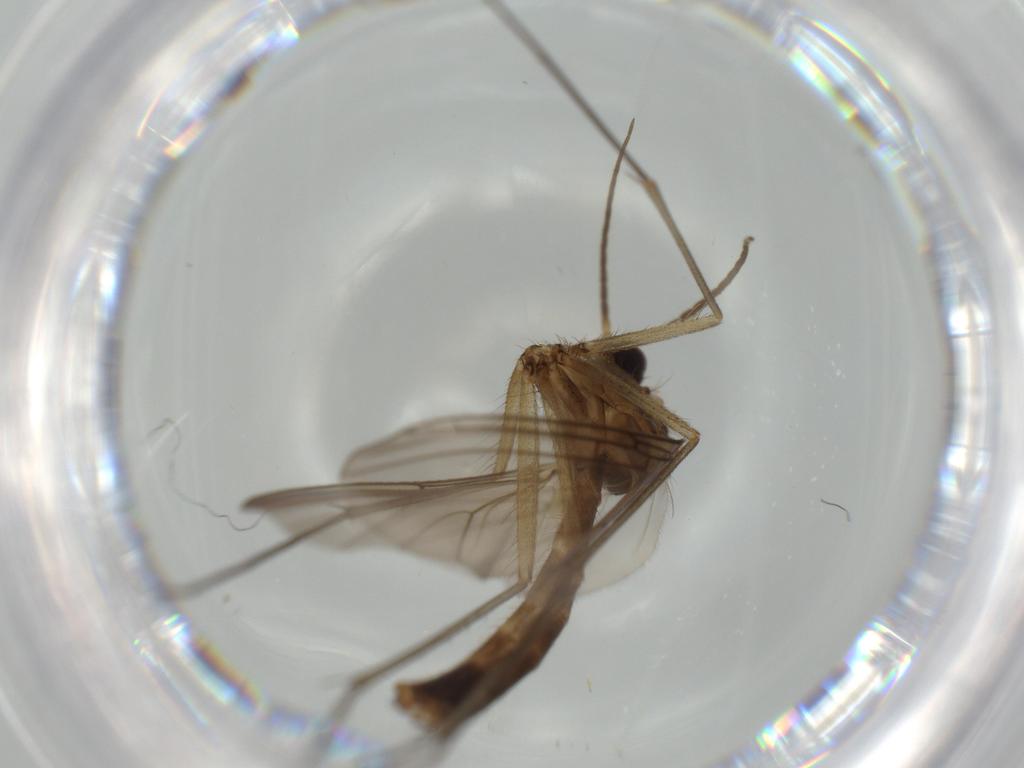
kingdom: Animalia
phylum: Arthropoda
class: Insecta
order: Diptera
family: Mycetophilidae
